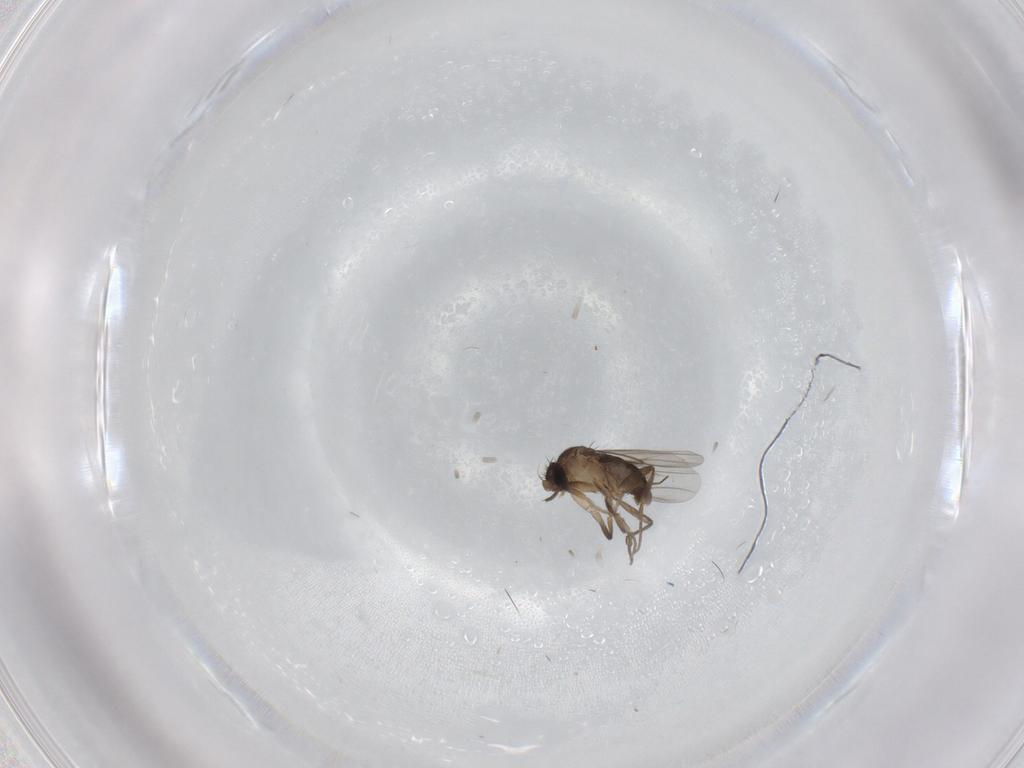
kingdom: Animalia
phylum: Arthropoda
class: Insecta
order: Diptera
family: Phoridae
